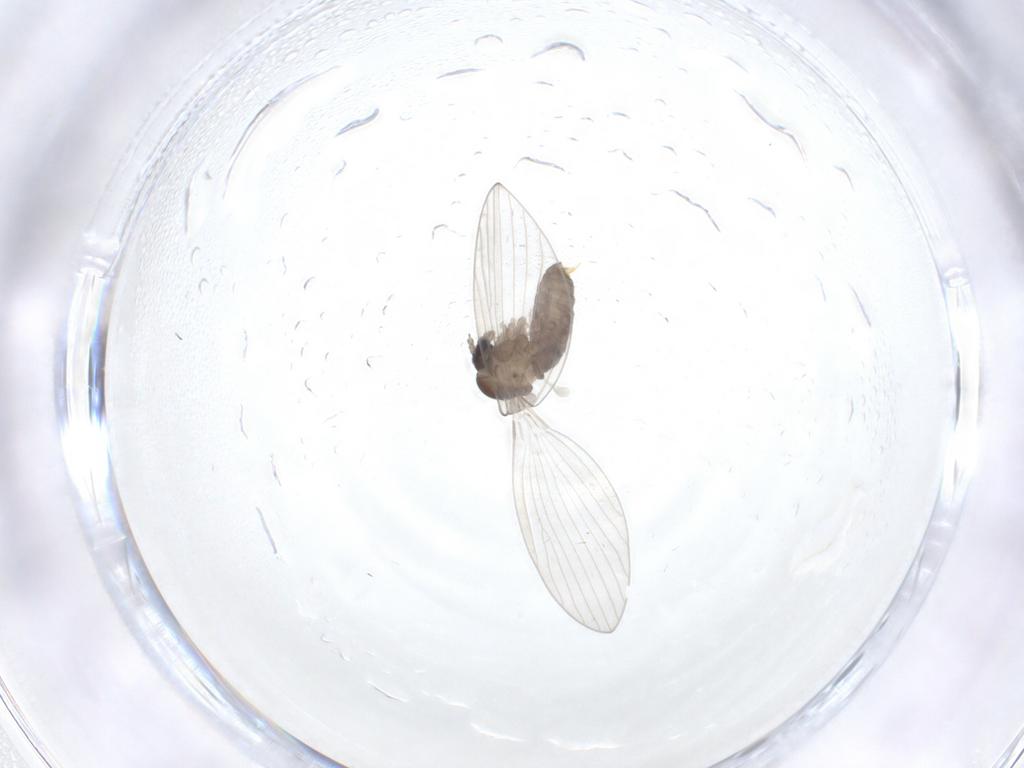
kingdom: Animalia
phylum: Arthropoda
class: Insecta
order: Diptera
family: Psychodidae
